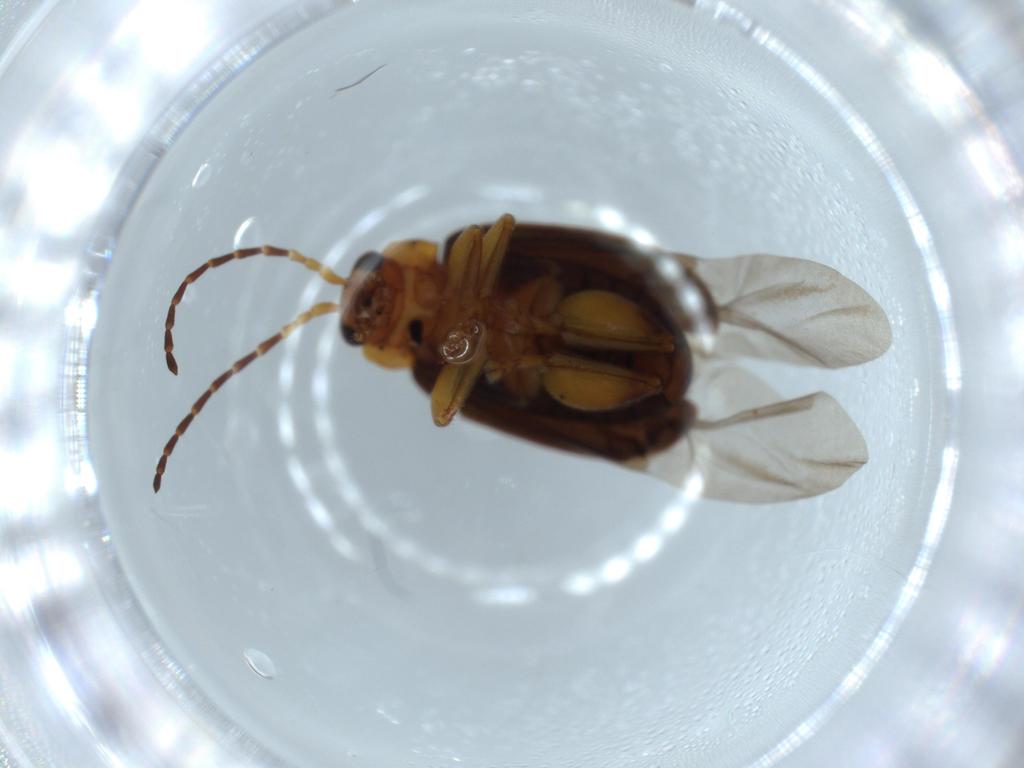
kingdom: Animalia
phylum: Arthropoda
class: Insecta
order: Coleoptera
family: Chrysomelidae
